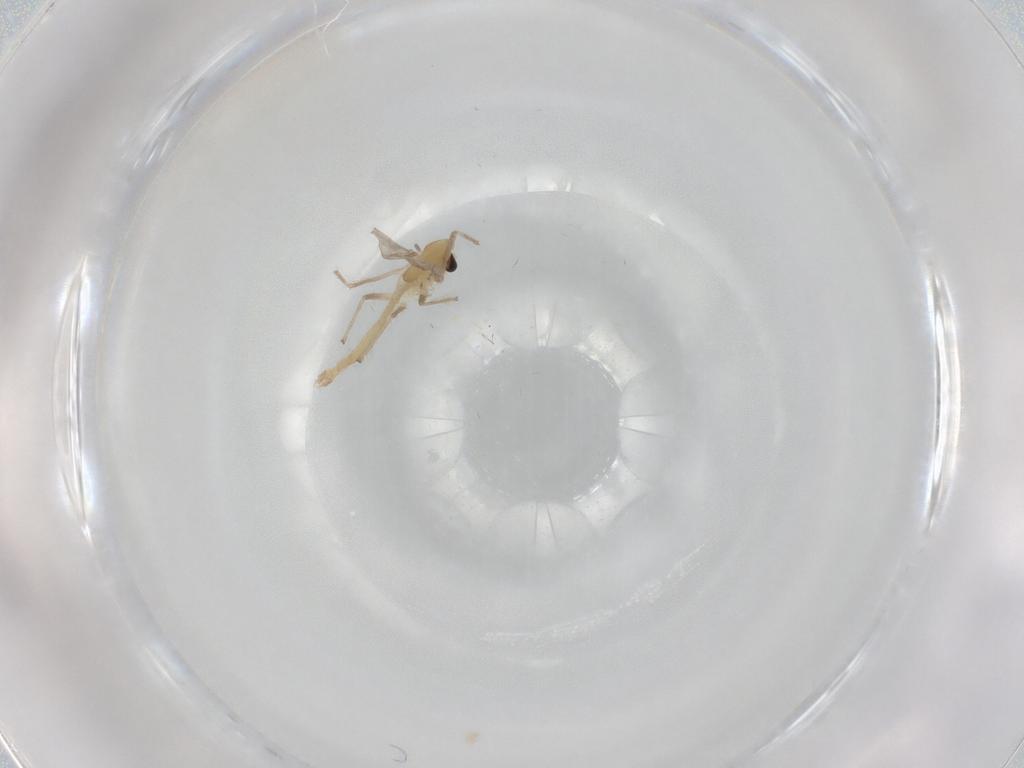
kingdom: Animalia
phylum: Arthropoda
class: Insecta
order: Diptera
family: Chironomidae
